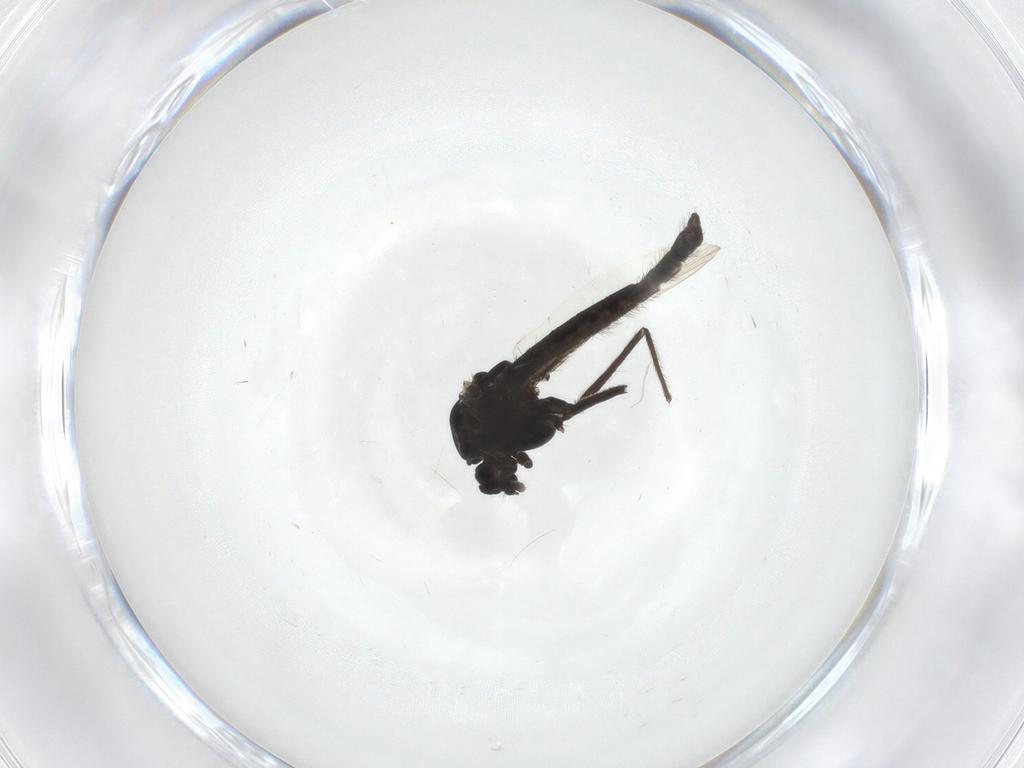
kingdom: Animalia
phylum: Arthropoda
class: Insecta
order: Diptera
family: Chironomidae
